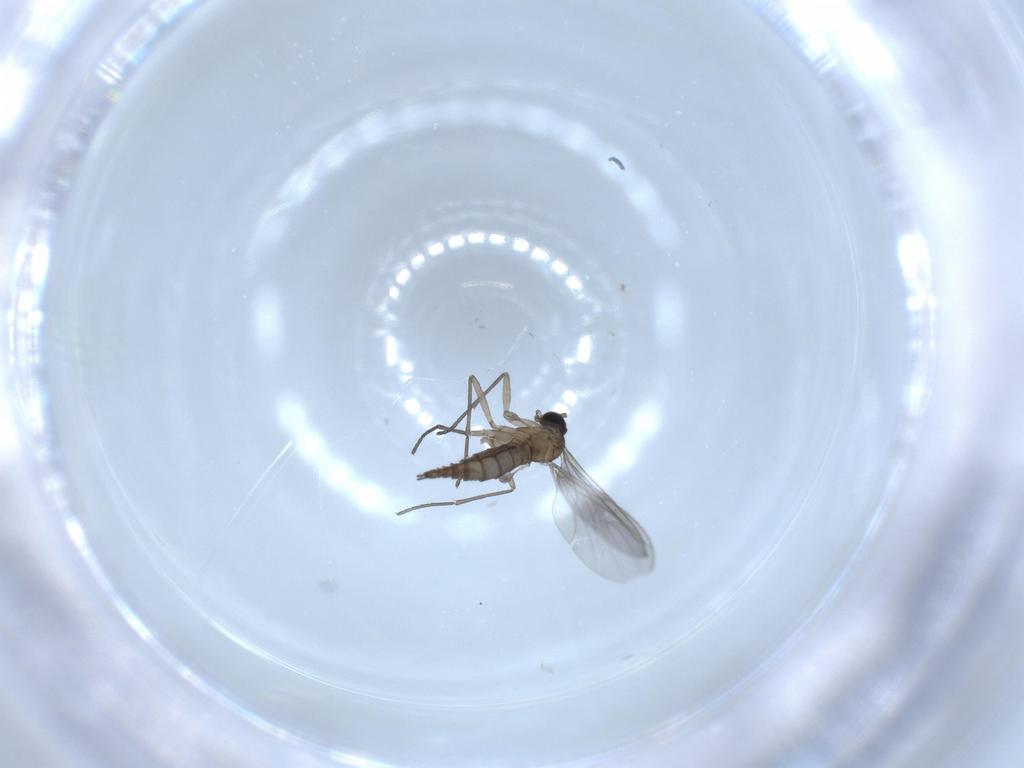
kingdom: Animalia
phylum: Arthropoda
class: Insecta
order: Diptera
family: Sciaridae
